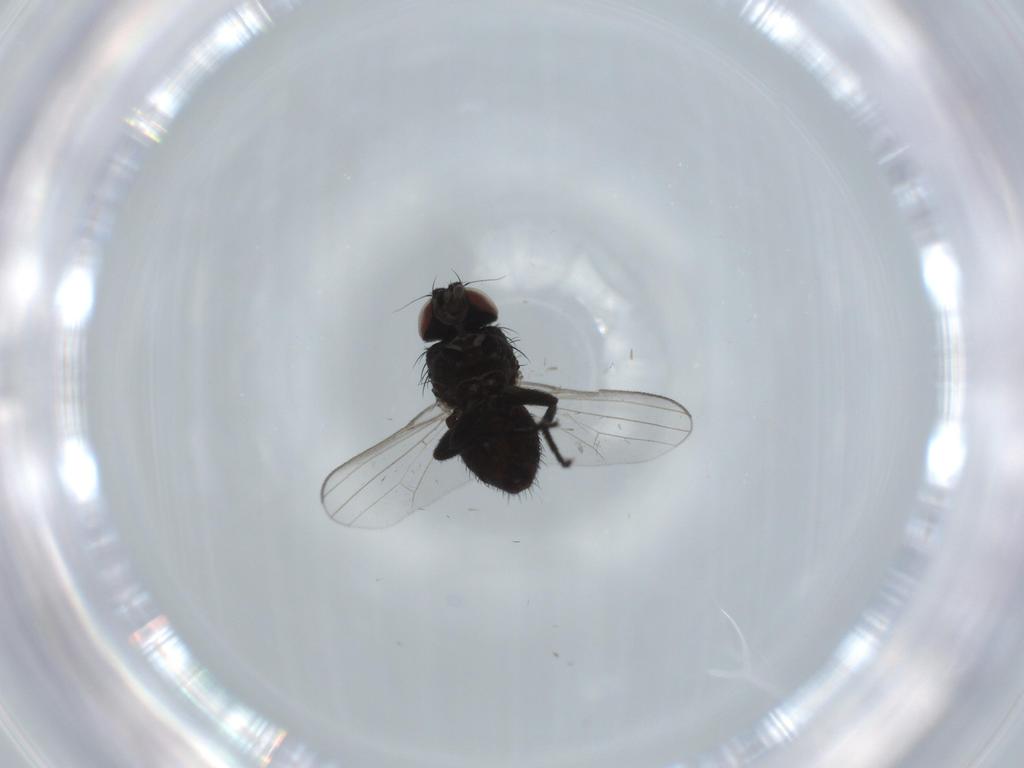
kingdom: Animalia
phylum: Arthropoda
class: Insecta
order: Diptera
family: Milichiidae
